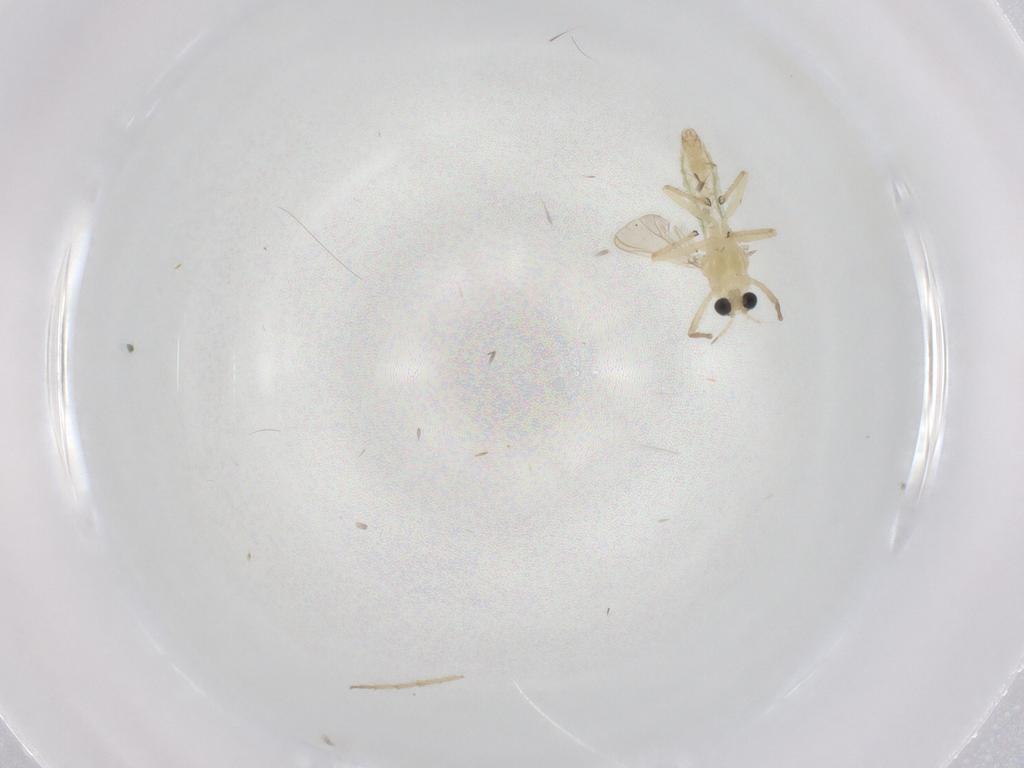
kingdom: Animalia
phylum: Arthropoda
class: Insecta
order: Diptera
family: Chironomidae
